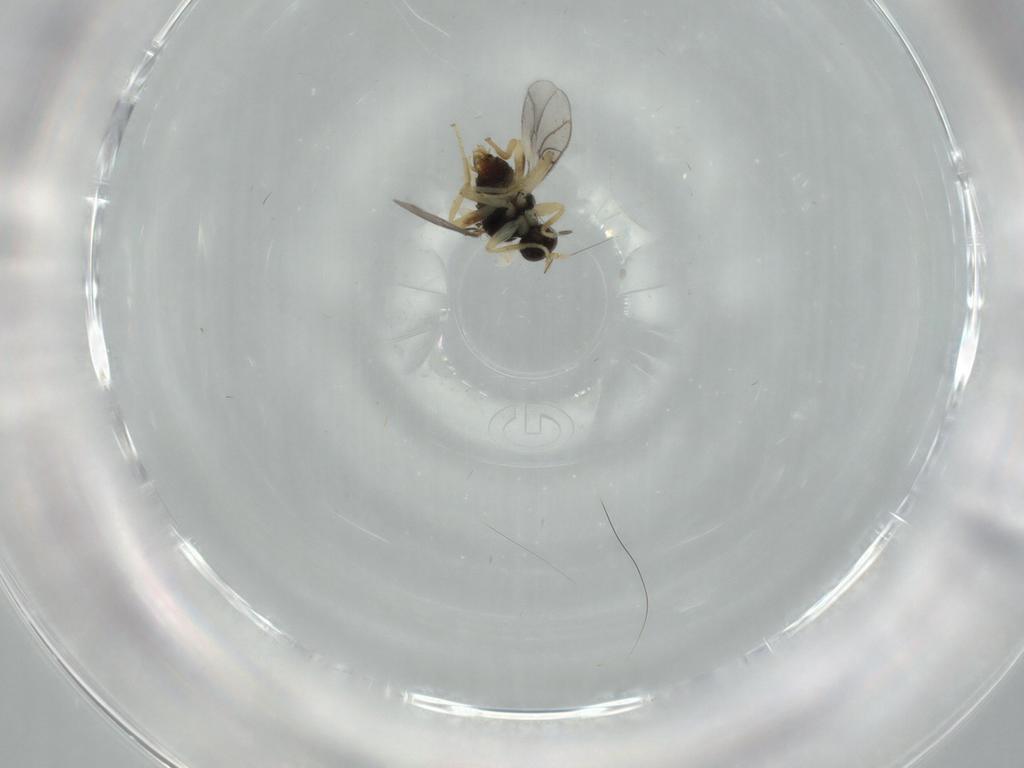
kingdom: Animalia
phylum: Arthropoda
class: Insecta
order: Diptera
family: Hybotidae
